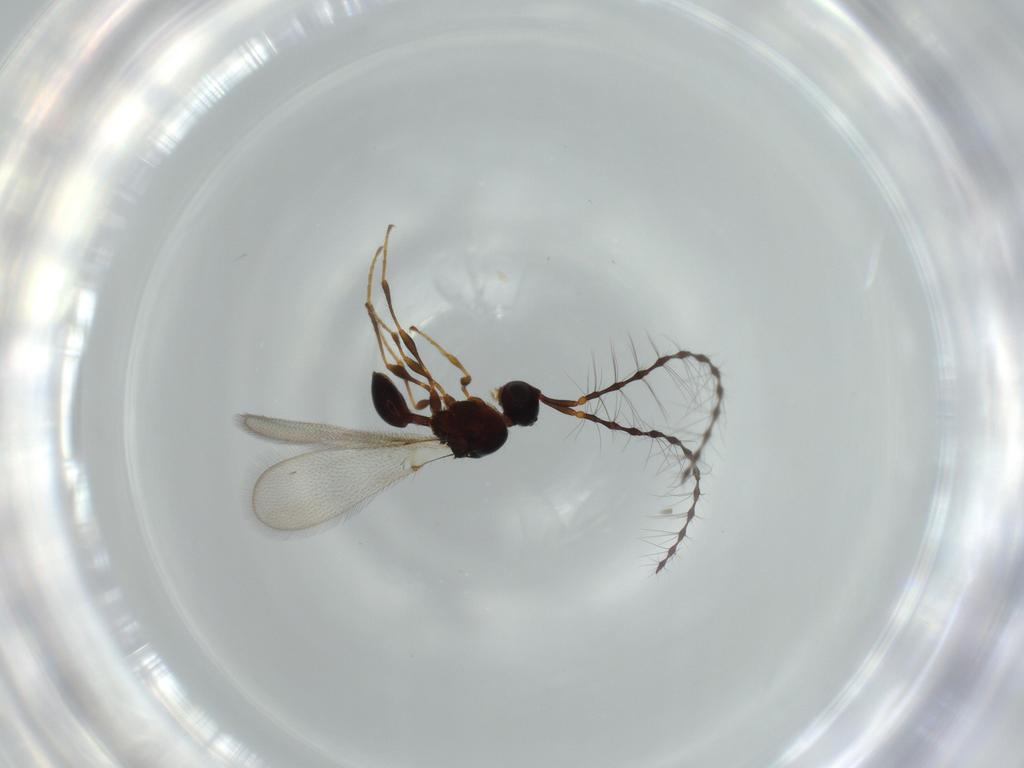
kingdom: Animalia
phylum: Arthropoda
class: Insecta
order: Hymenoptera
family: Diapriidae
